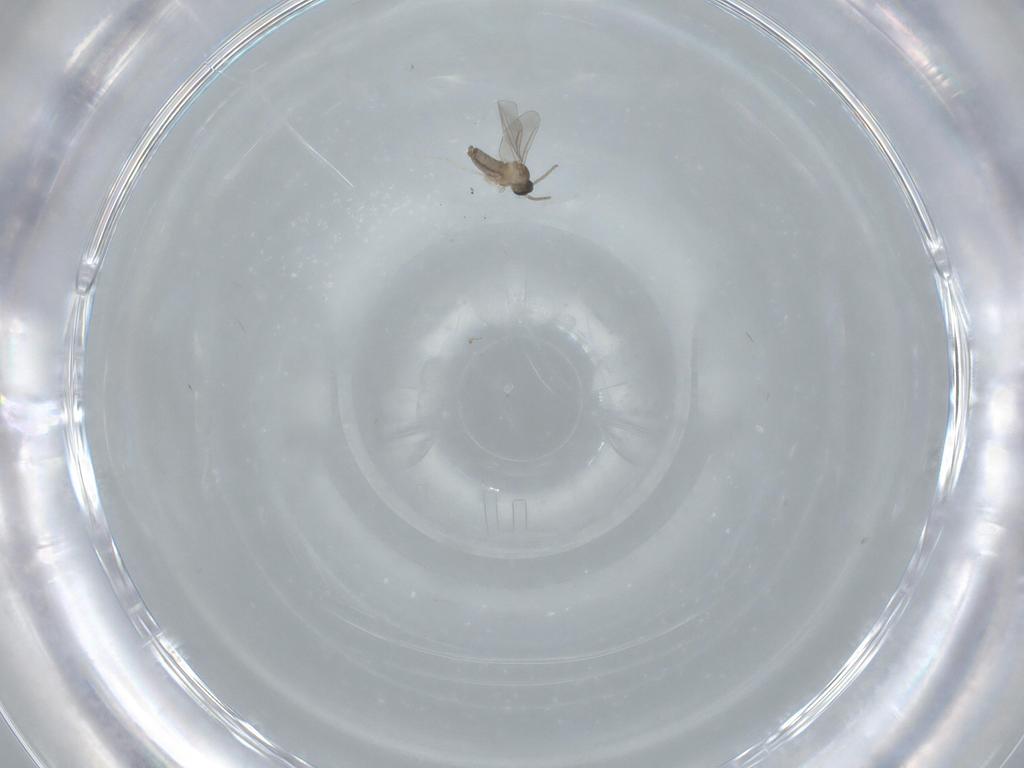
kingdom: Animalia
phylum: Arthropoda
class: Insecta
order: Diptera
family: Cecidomyiidae
